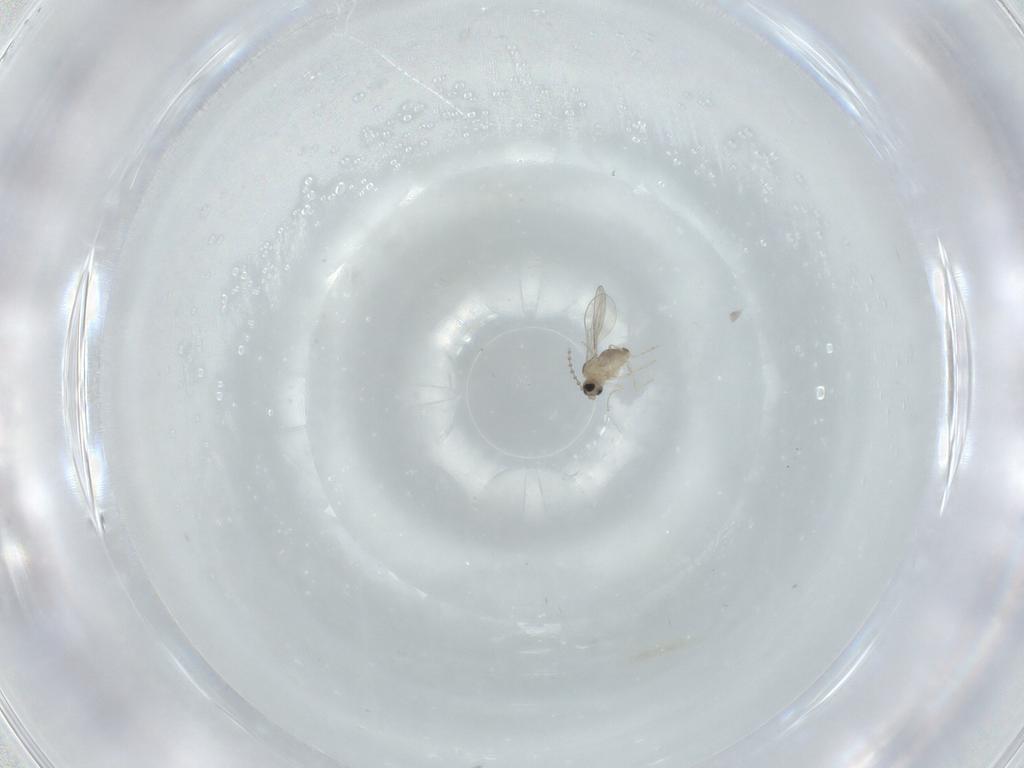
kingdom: Animalia
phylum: Arthropoda
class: Insecta
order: Diptera
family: Cecidomyiidae
